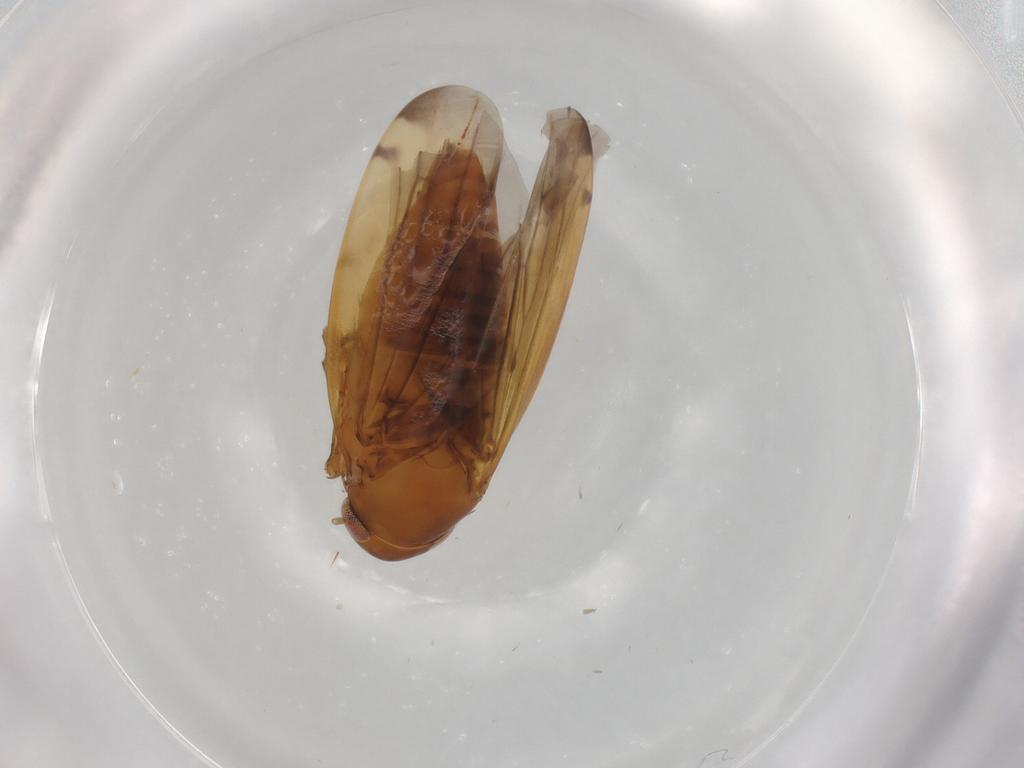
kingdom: Animalia
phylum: Arthropoda
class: Insecta
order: Hemiptera
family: Cicadellidae
